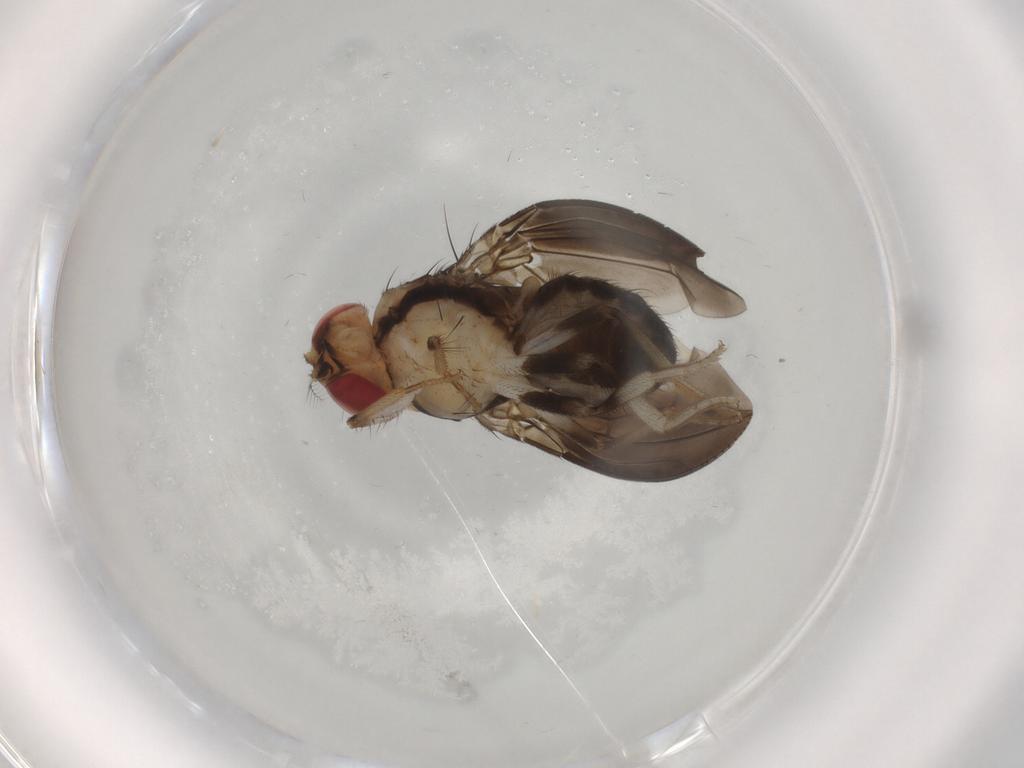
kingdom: Animalia
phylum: Arthropoda
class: Insecta
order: Diptera
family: Drosophilidae
